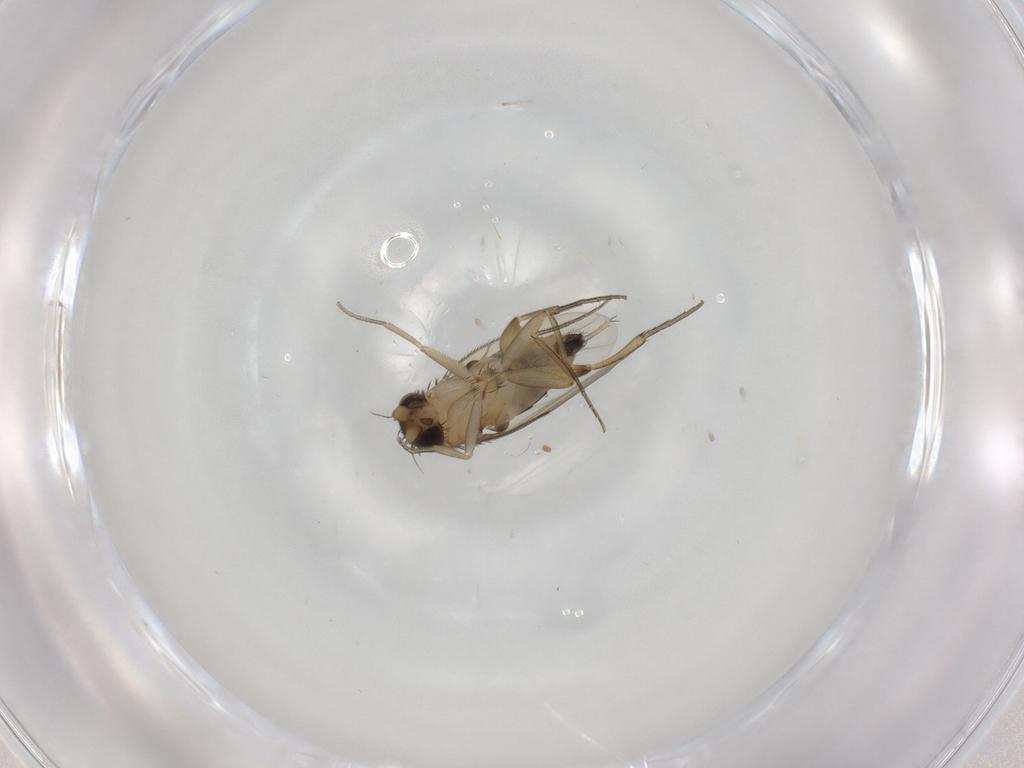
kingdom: Animalia
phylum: Arthropoda
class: Insecta
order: Diptera
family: Phoridae
